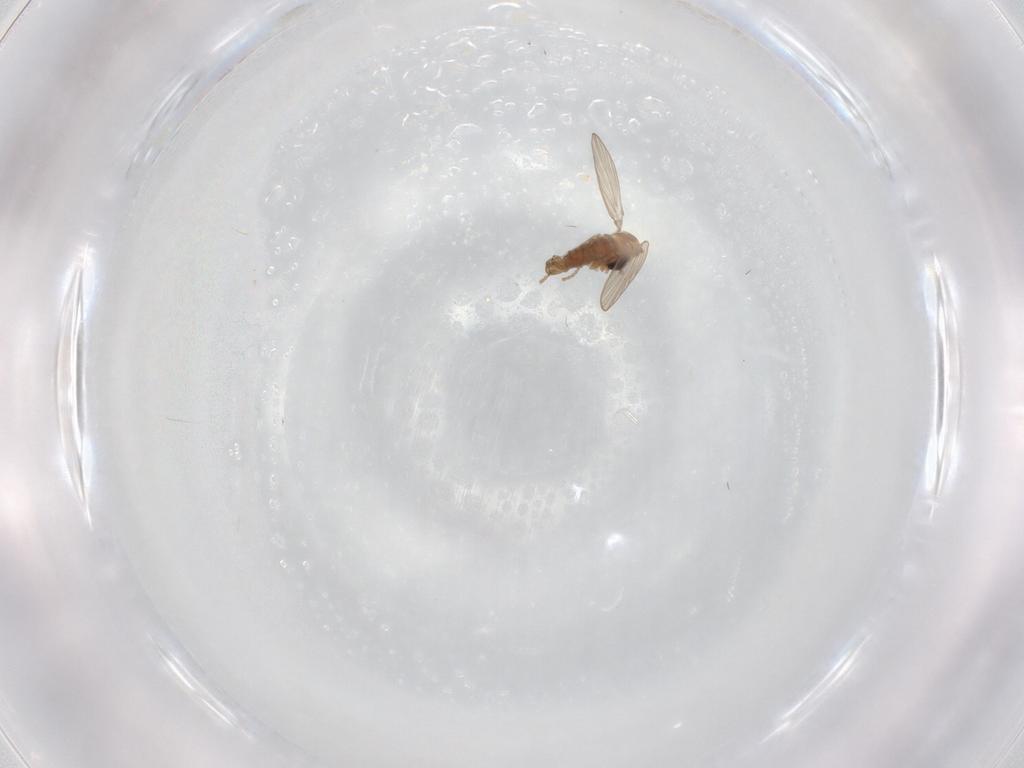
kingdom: Animalia
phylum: Arthropoda
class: Insecta
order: Diptera
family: Psychodidae
